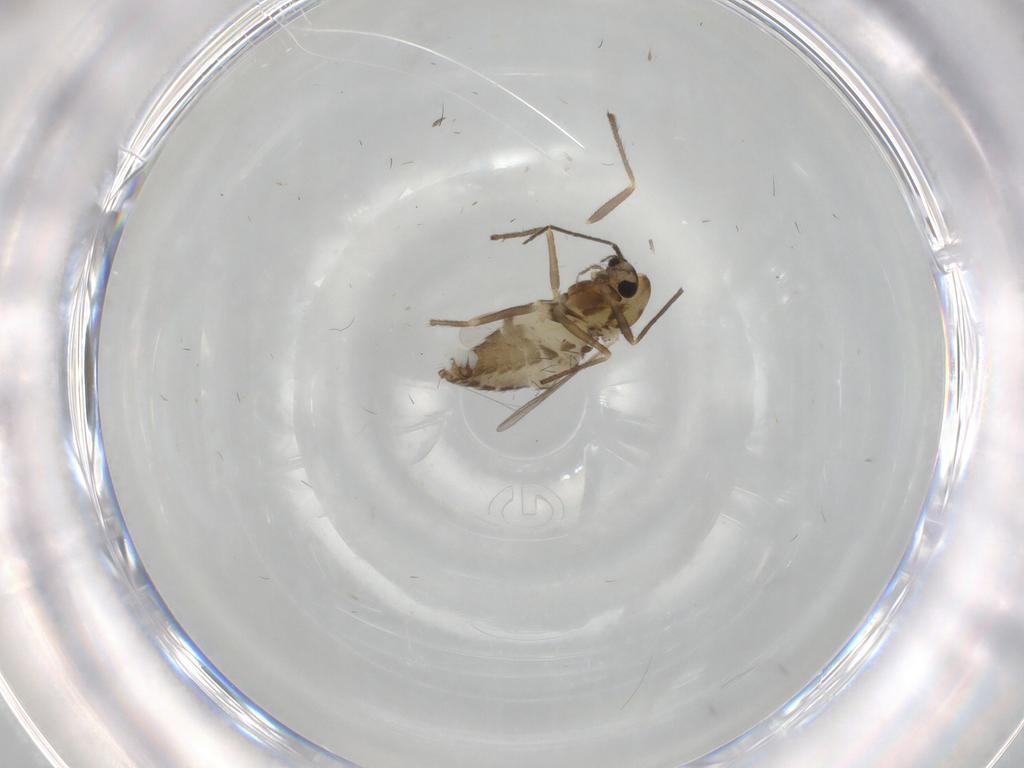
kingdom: Animalia
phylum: Arthropoda
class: Insecta
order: Diptera
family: Chironomidae
